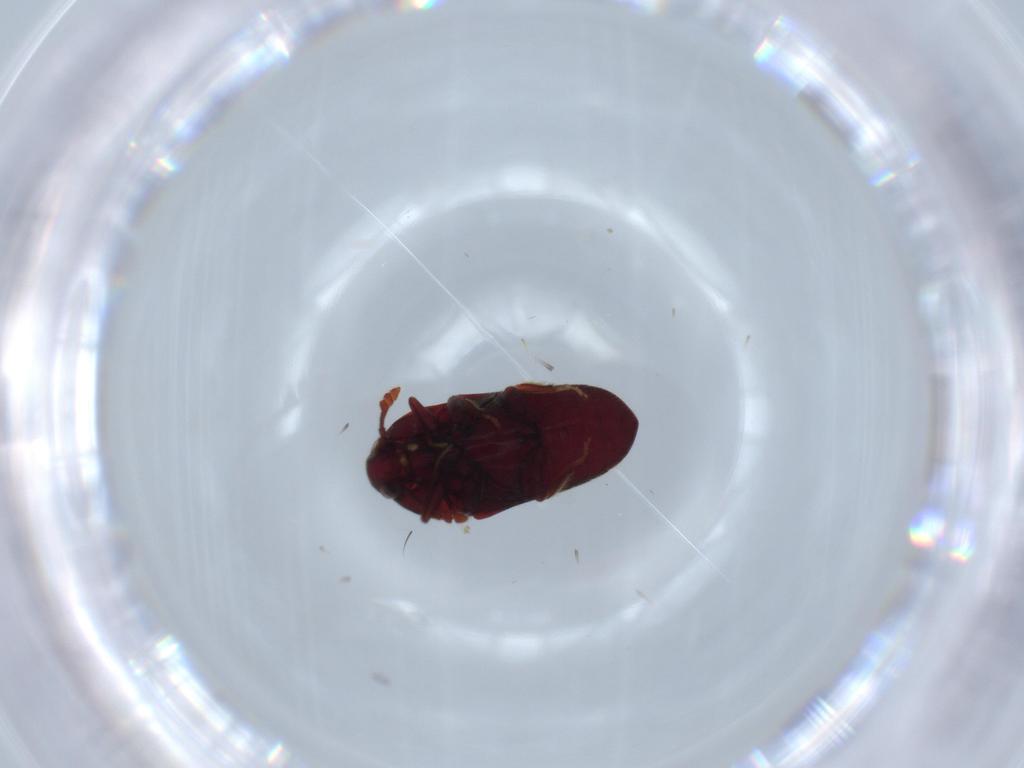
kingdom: Animalia
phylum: Arthropoda
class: Insecta
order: Coleoptera
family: Throscidae
